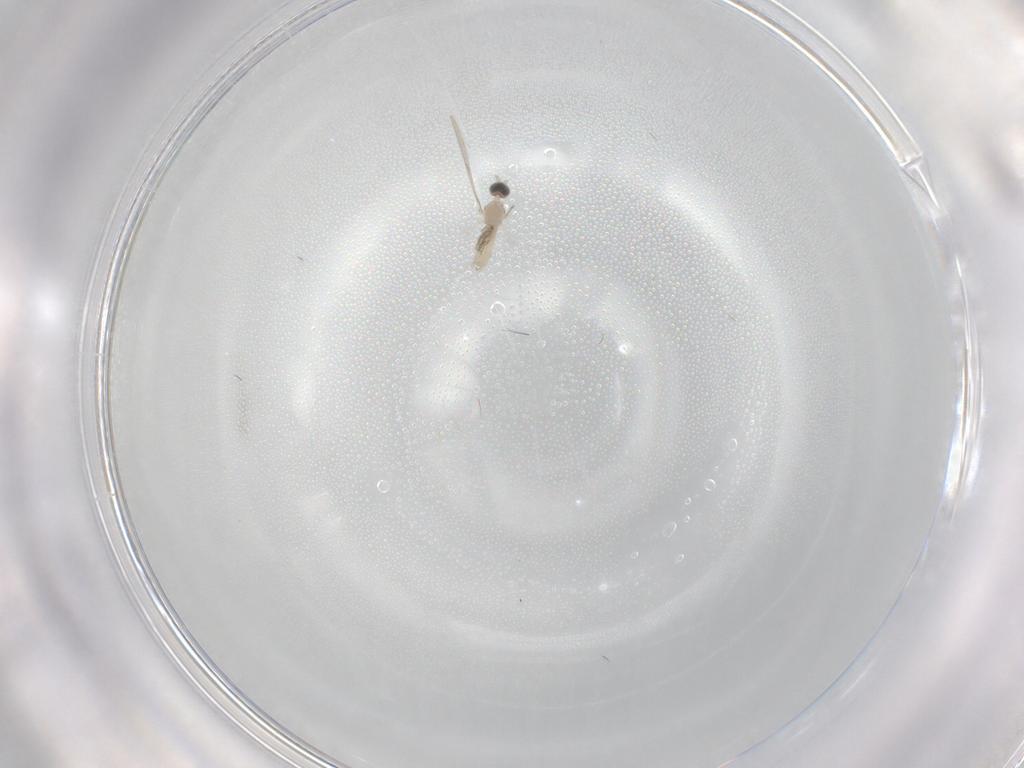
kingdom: Animalia
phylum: Arthropoda
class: Insecta
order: Diptera
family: Cecidomyiidae
